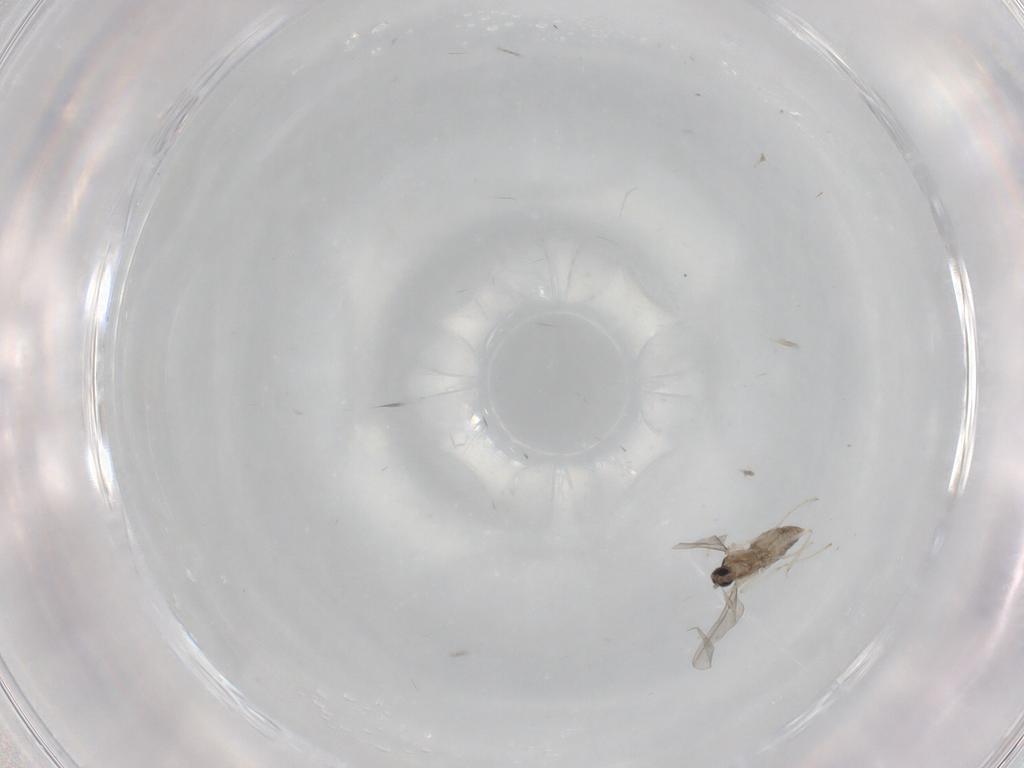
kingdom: Animalia
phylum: Arthropoda
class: Insecta
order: Diptera
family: Cecidomyiidae
